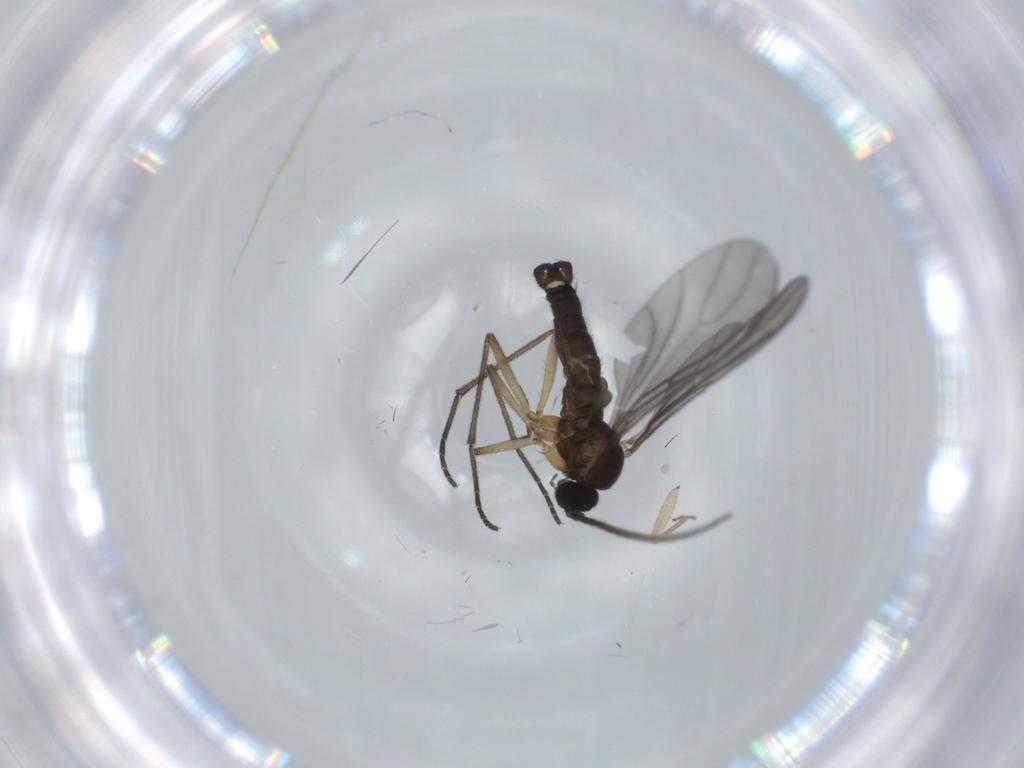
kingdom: Animalia
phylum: Arthropoda
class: Insecta
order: Diptera
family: Sciaridae
